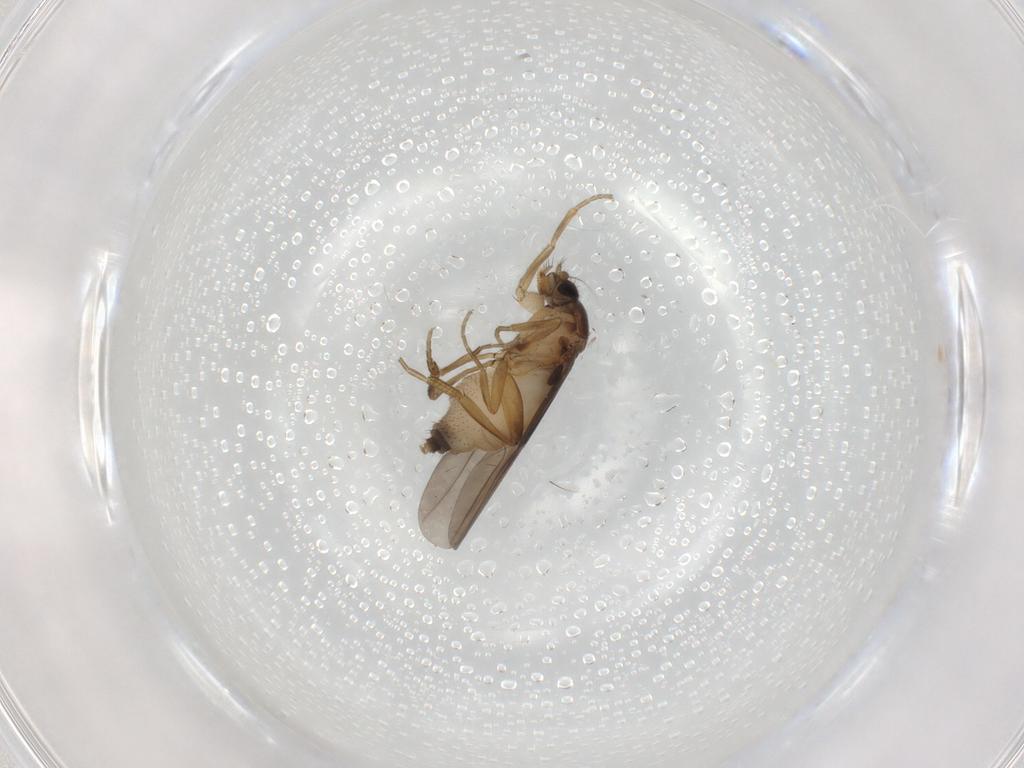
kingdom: Animalia
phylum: Arthropoda
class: Insecta
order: Diptera
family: Phoridae
